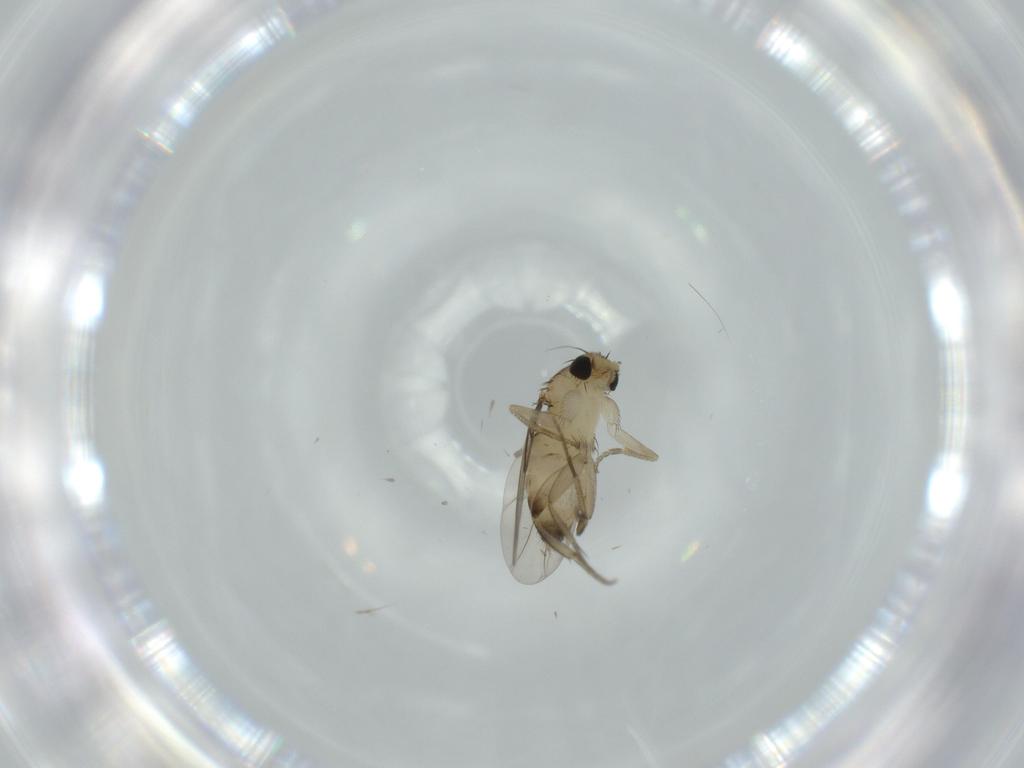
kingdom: Animalia
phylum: Arthropoda
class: Insecta
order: Diptera
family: Phoridae
